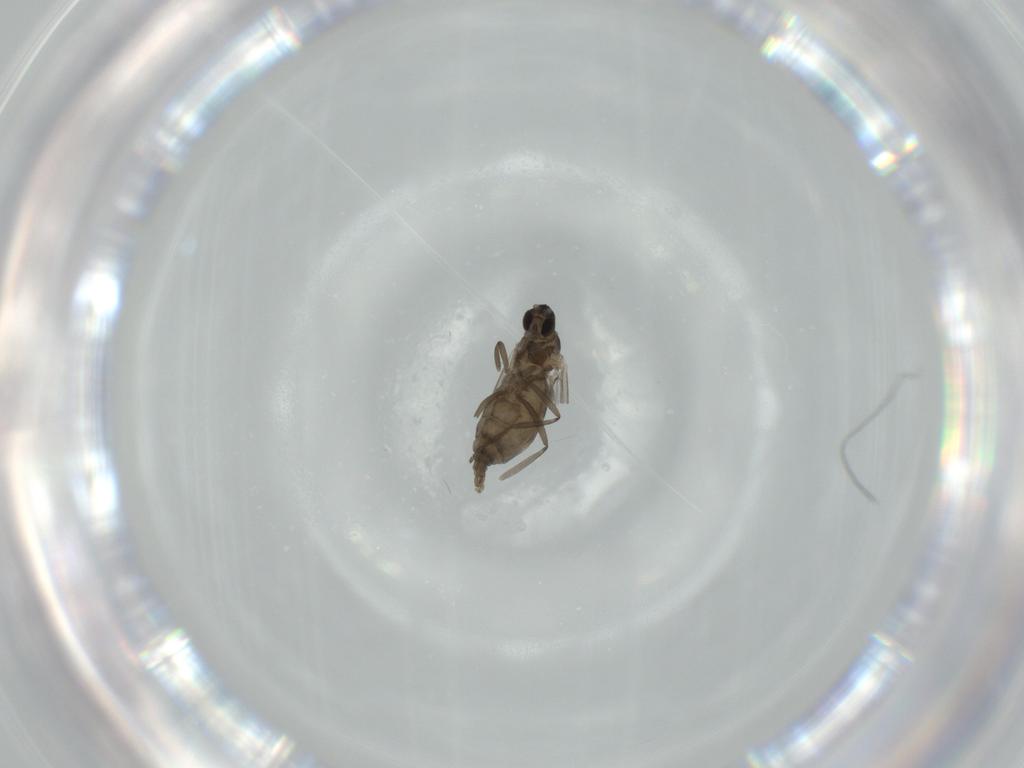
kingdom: Animalia
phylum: Arthropoda
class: Insecta
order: Diptera
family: Cecidomyiidae
